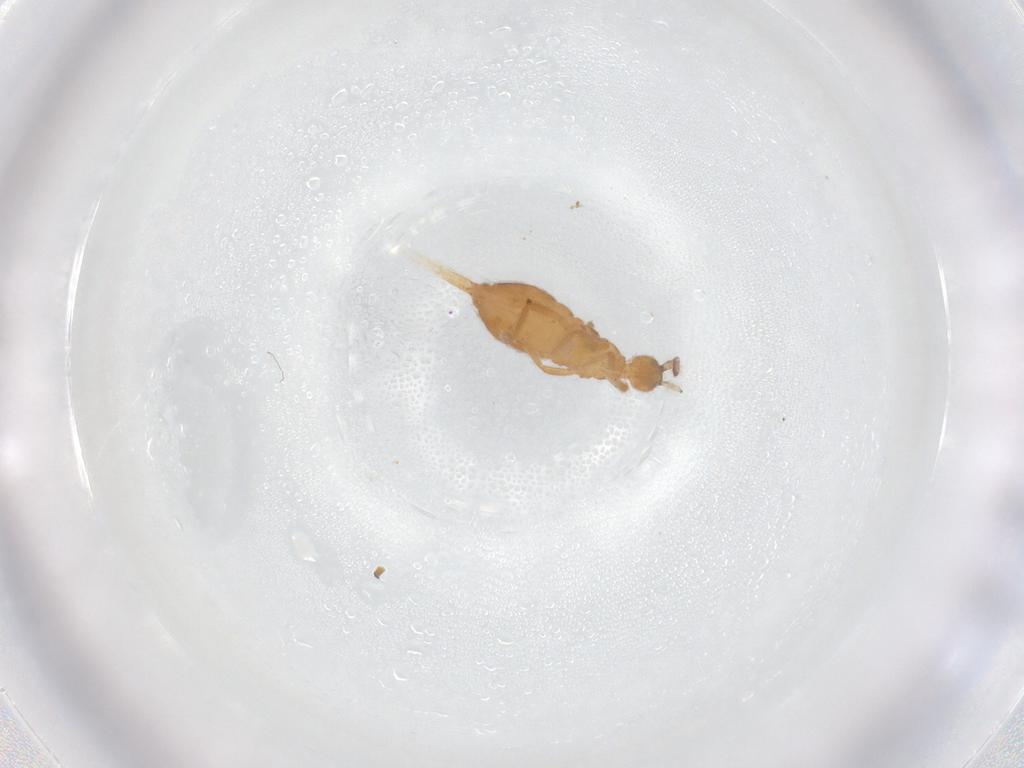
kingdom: Animalia
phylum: Arthropoda
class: Collembola
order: Entomobryomorpha
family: Entomobryidae
